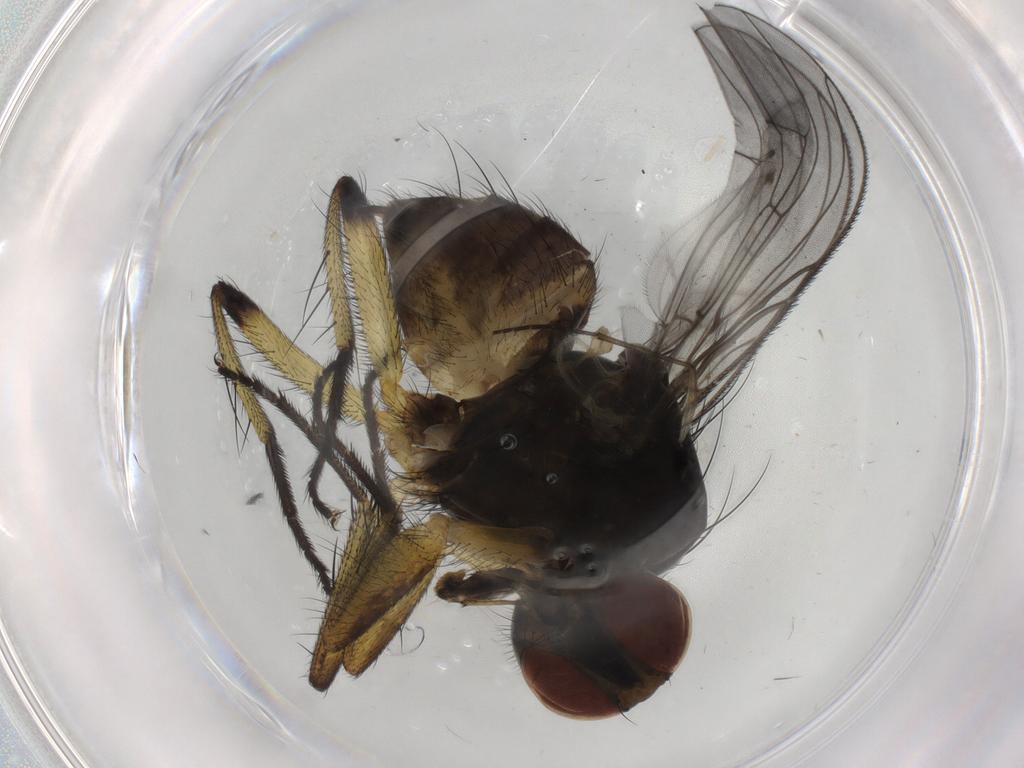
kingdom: Animalia
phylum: Arthropoda
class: Insecta
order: Diptera
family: Muscidae
